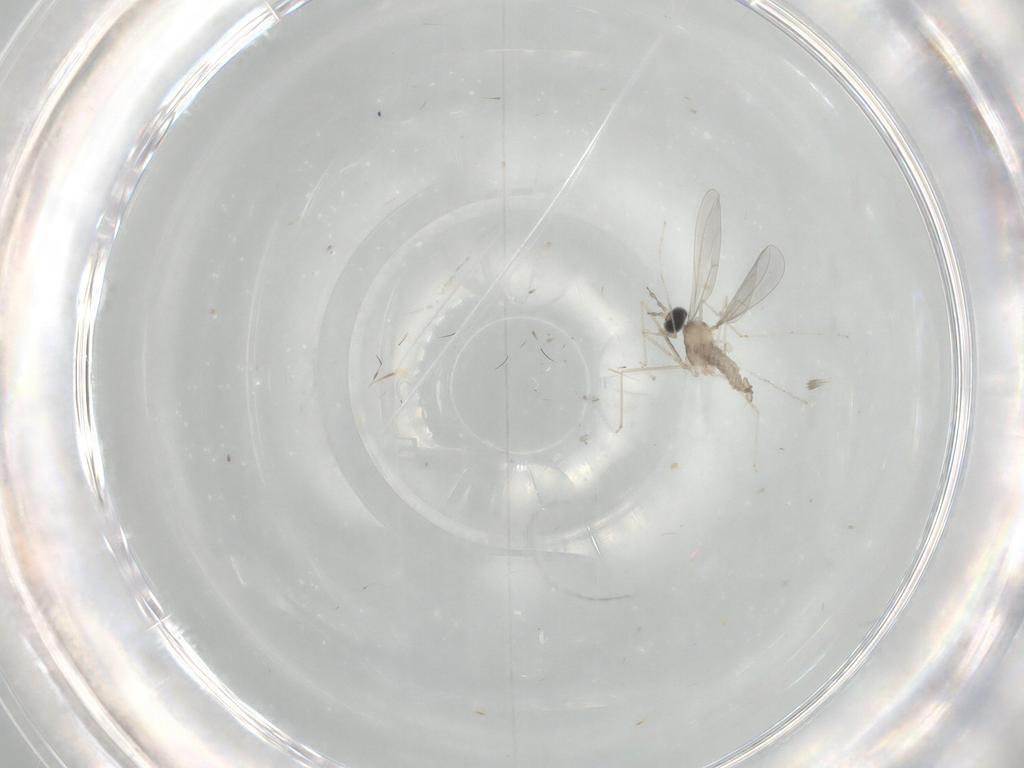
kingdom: Animalia
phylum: Arthropoda
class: Insecta
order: Diptera
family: Cecidomyiidae
